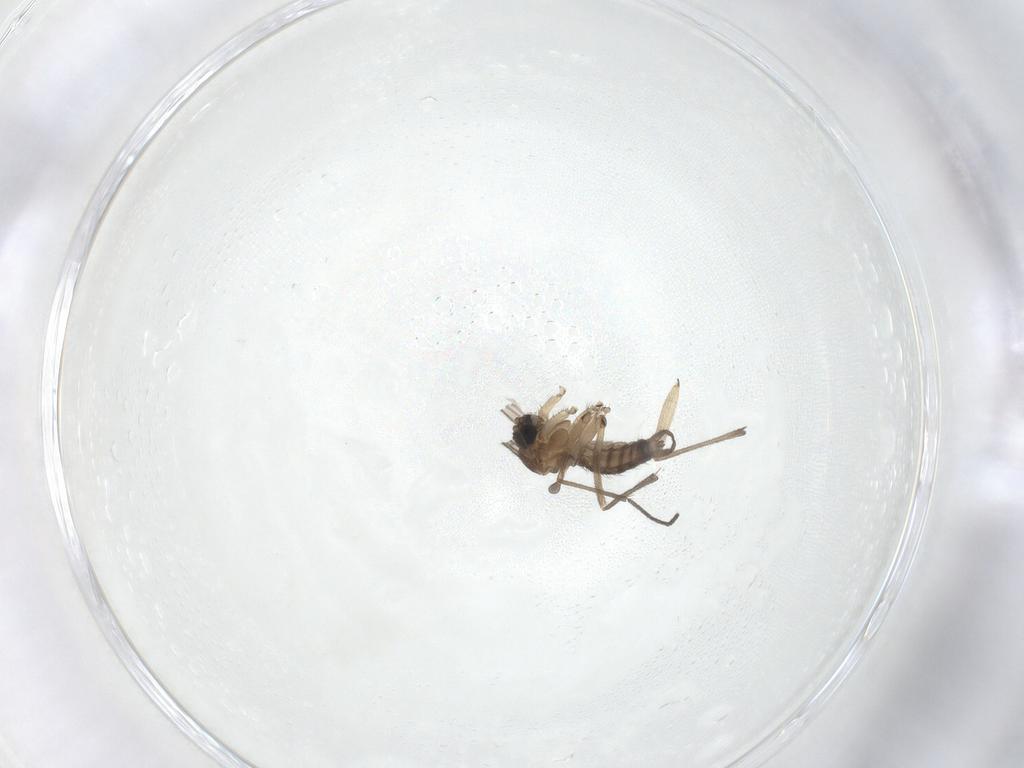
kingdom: Animalia
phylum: Arthropoda
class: Insecta
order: Diptera
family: Sciaridae
